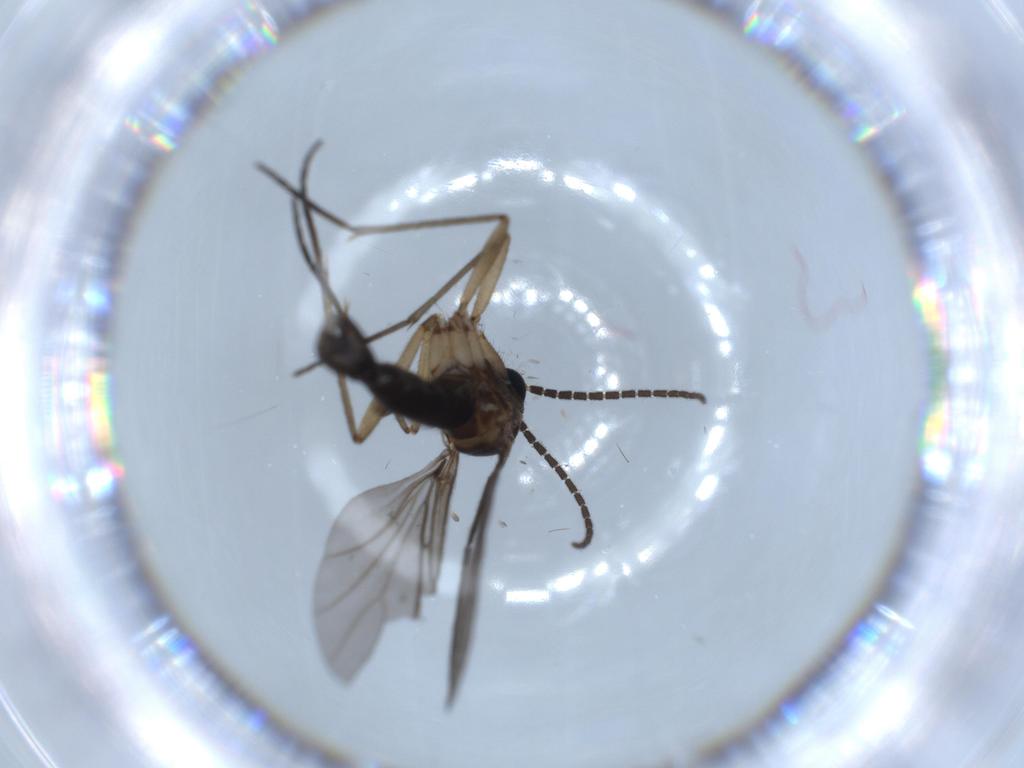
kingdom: Animalia
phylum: Arthropoda
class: Insecta
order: Diptera
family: Sciaridae
